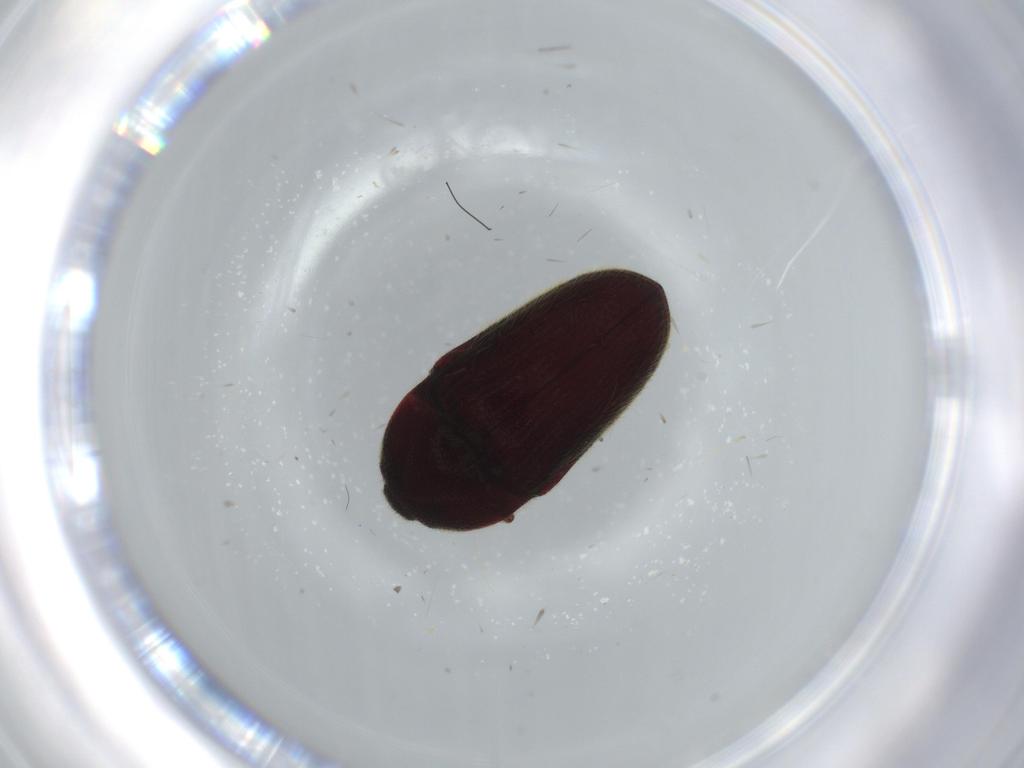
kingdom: Animalia
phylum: Arthropoda
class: Insecta
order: Coleoptera
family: Throscidae
